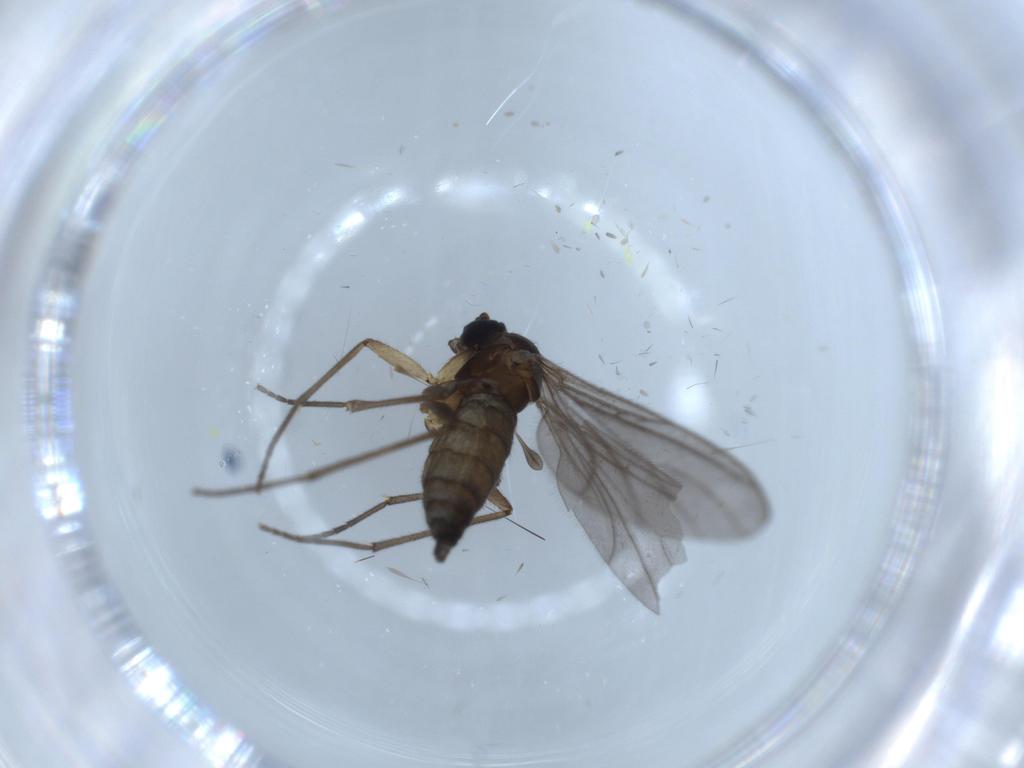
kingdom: Animalia
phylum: Arthropoda
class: Insecta
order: Diptera
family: Sciaridae
